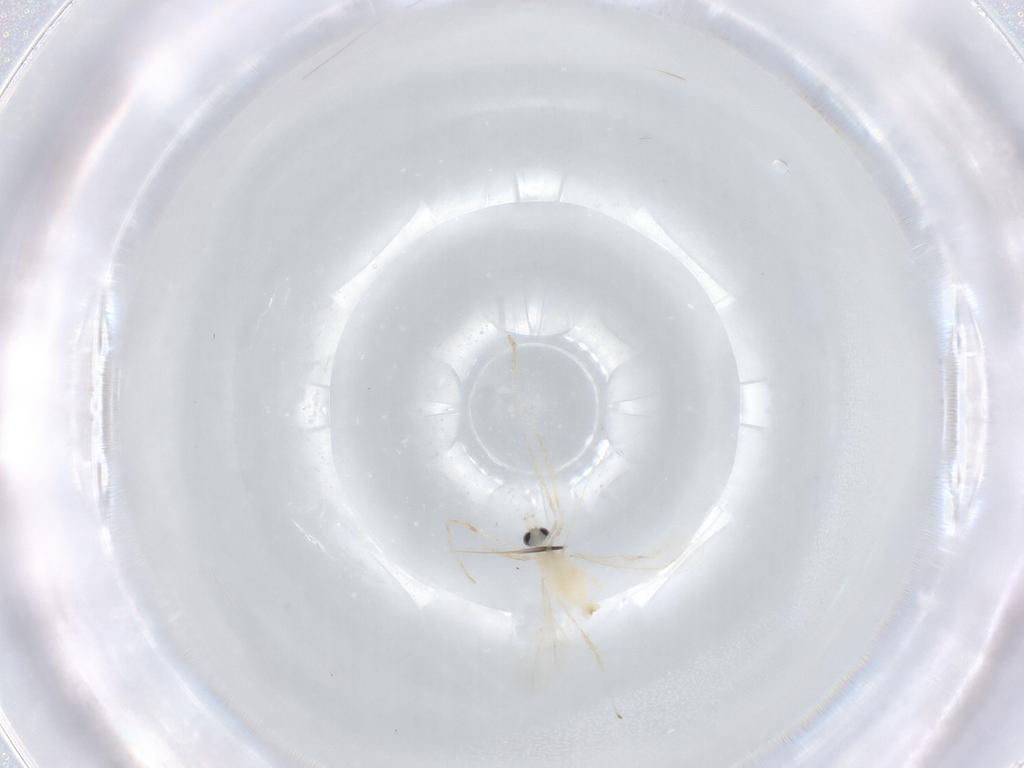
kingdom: Animalia
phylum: Arthropoda
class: Insecta
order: Diptera
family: Cecidomyiidae
